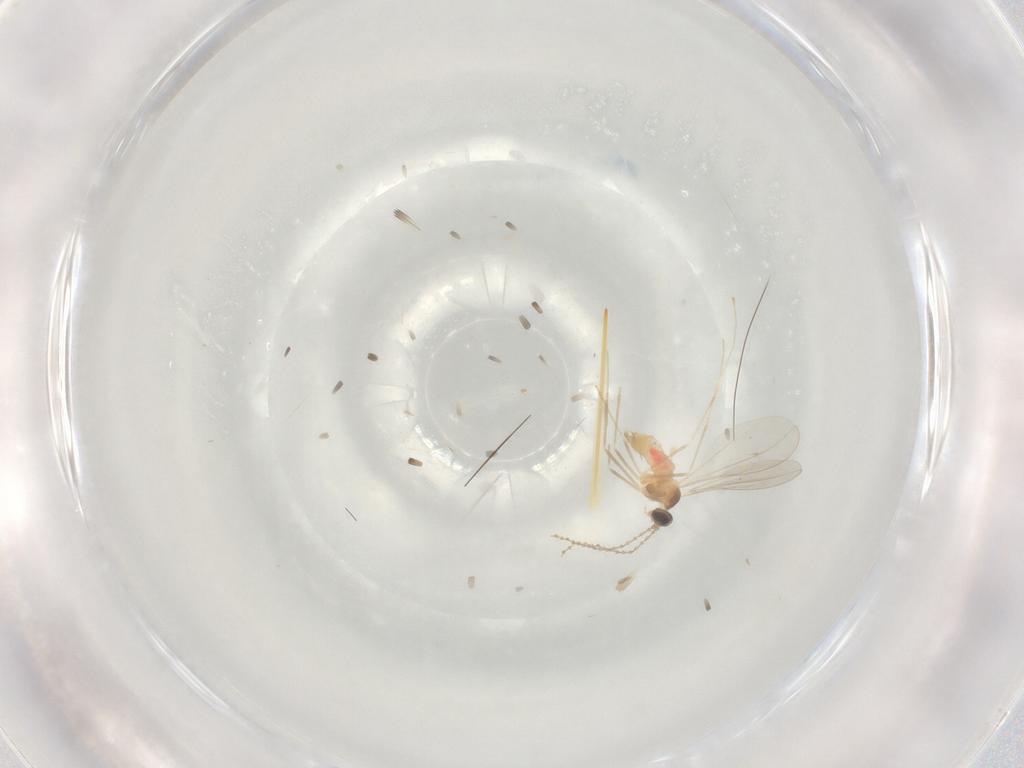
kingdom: Animalia
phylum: Arthropoda
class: Insecta
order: Diptera
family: Cecidomyiidae
